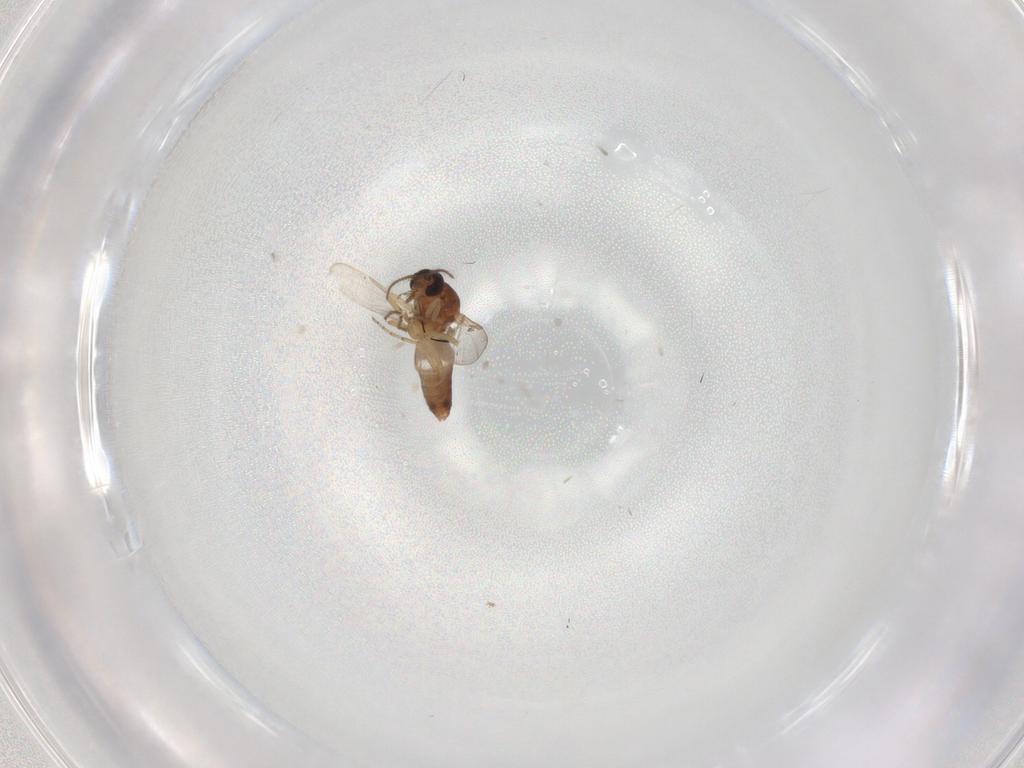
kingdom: Animalia
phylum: Arthropoda
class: Insecta
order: Diptera
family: Ceratopogonidae
